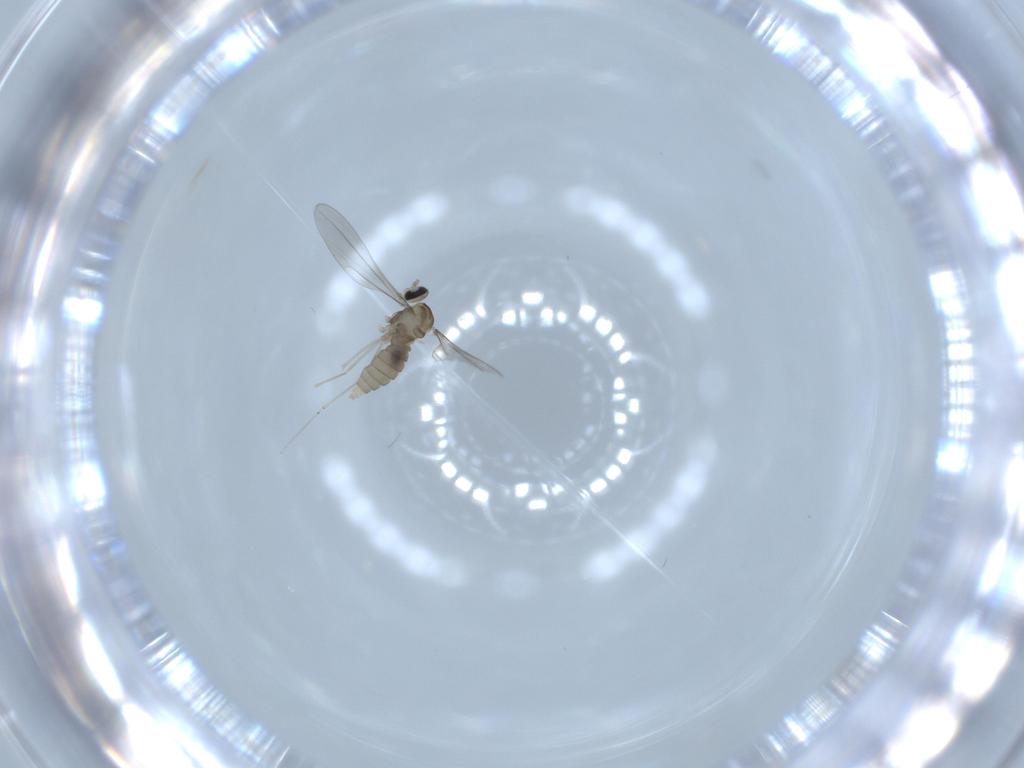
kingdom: Animalia
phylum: Arthropoda
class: Insecta
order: Diptera
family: Cecidomyiidae
